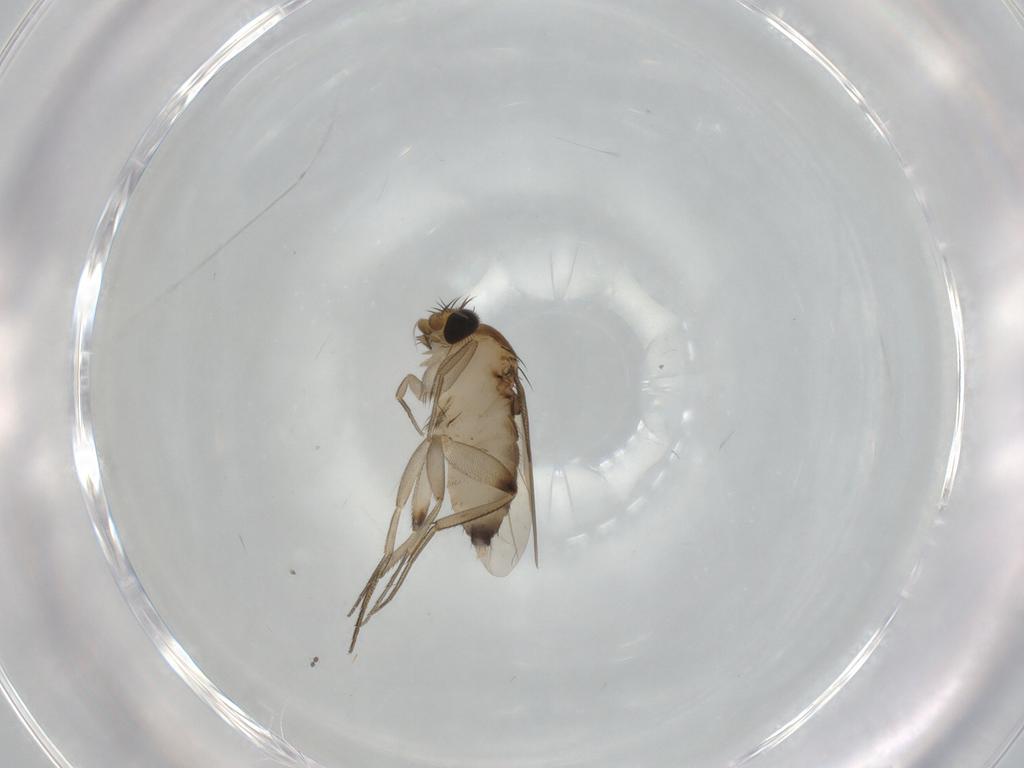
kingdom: Animalia
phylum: Arthropoda
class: Insecta
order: Diptera
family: Phoridae
